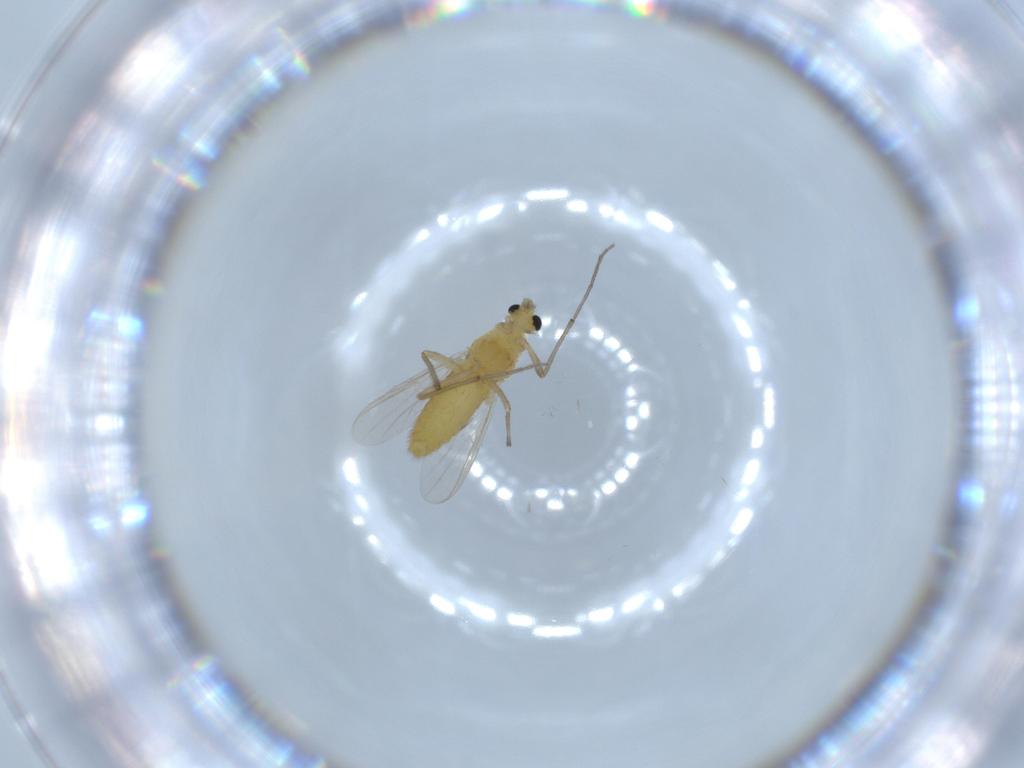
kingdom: Animalia
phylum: Arthropoda
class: Insecta
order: Diptera
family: Chironomidae
